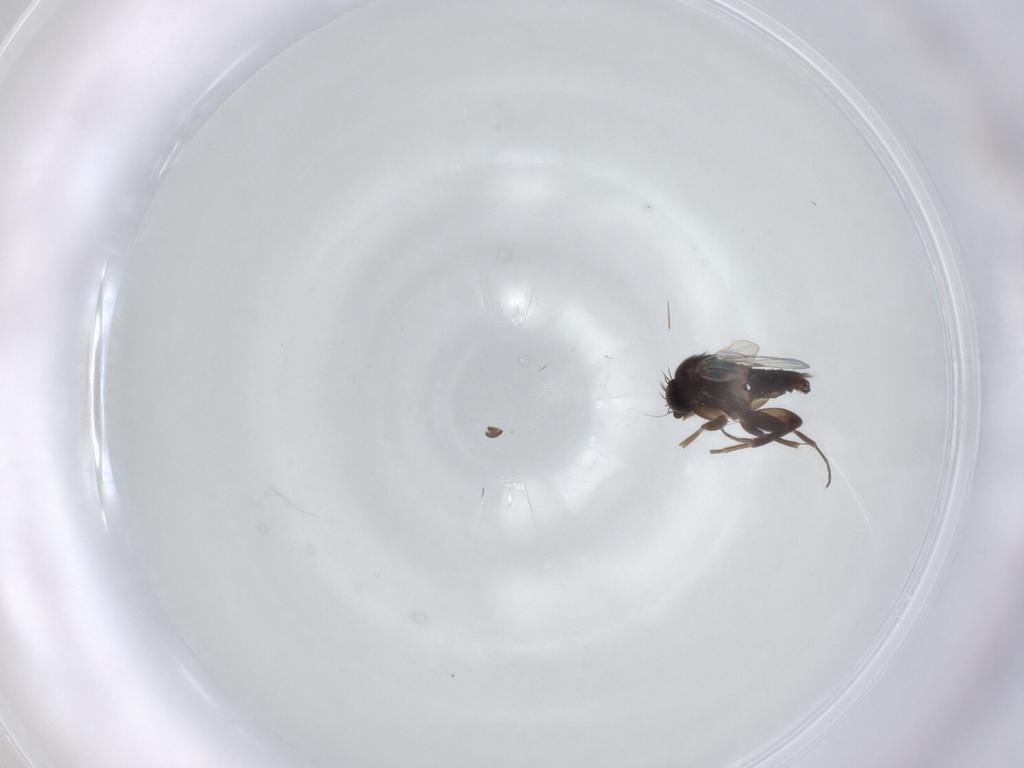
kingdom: Animalia
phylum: Arthropoda
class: Insecta
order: Diptera
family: Phoridae
